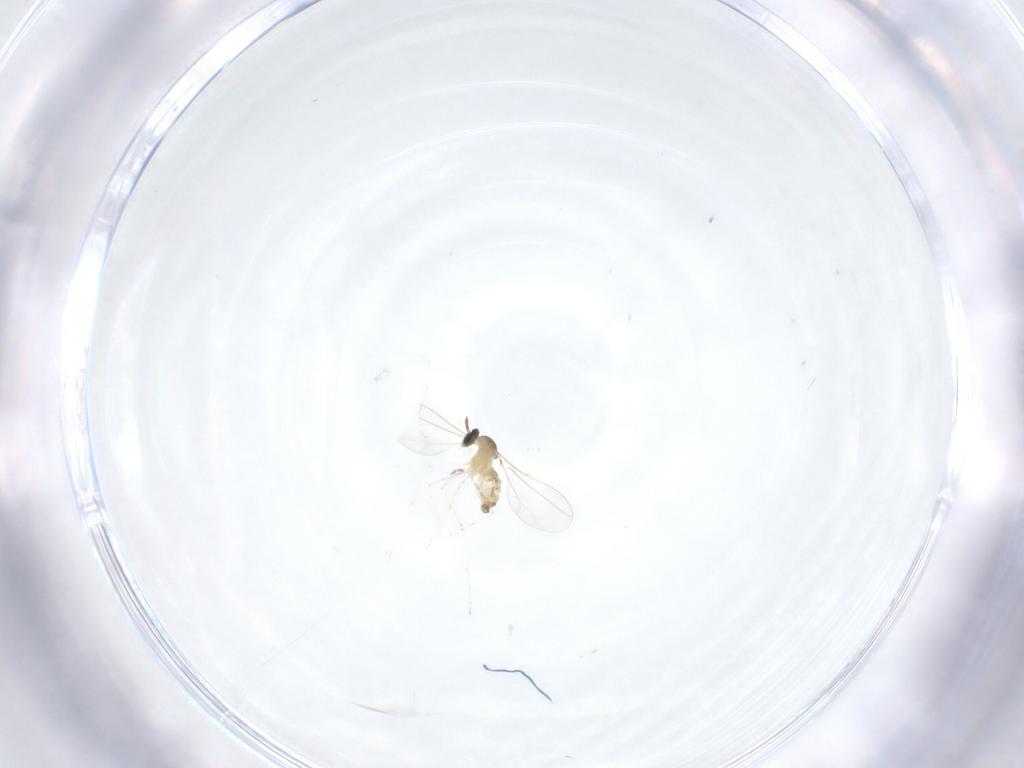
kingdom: Animalia
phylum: Arthropoda
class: Insecta
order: Diptera
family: Cecidomyiidae
